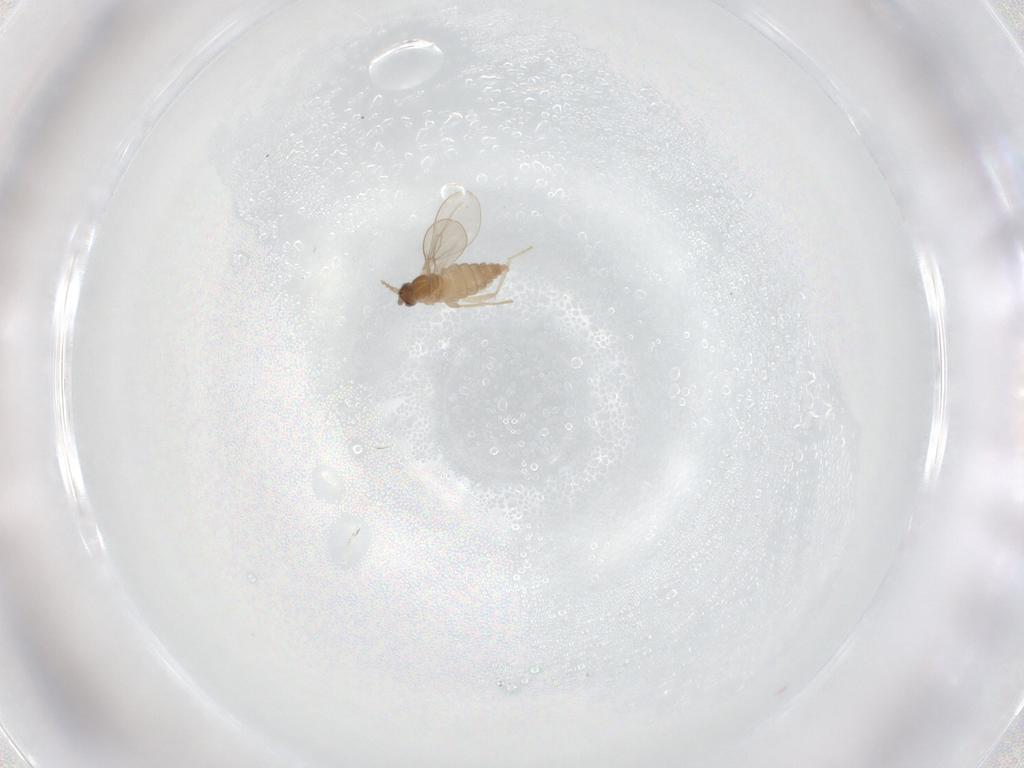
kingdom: Animalia
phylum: Arthropoda
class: Insecta
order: Diptera
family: Cecidomyiidae
